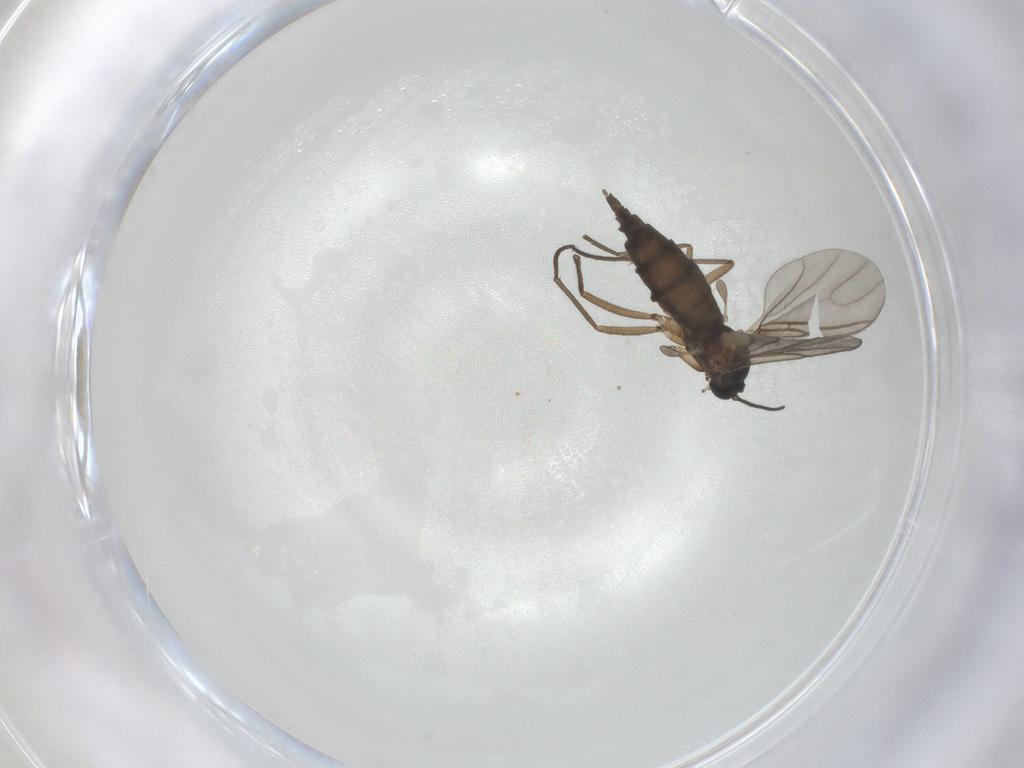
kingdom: Animalia
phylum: Arthropoda
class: Insecta
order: Diptera
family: Sciaridae
